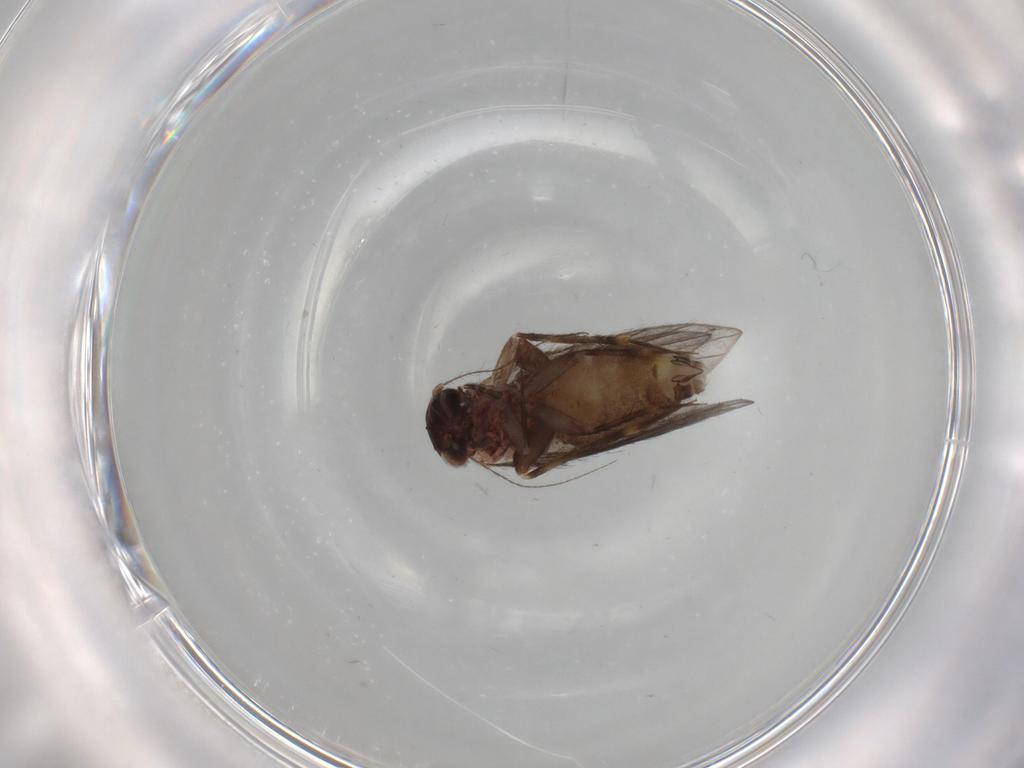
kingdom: Animalia
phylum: Arthropoda
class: Insecta
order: Psocodea
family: Lepidopsocidae
